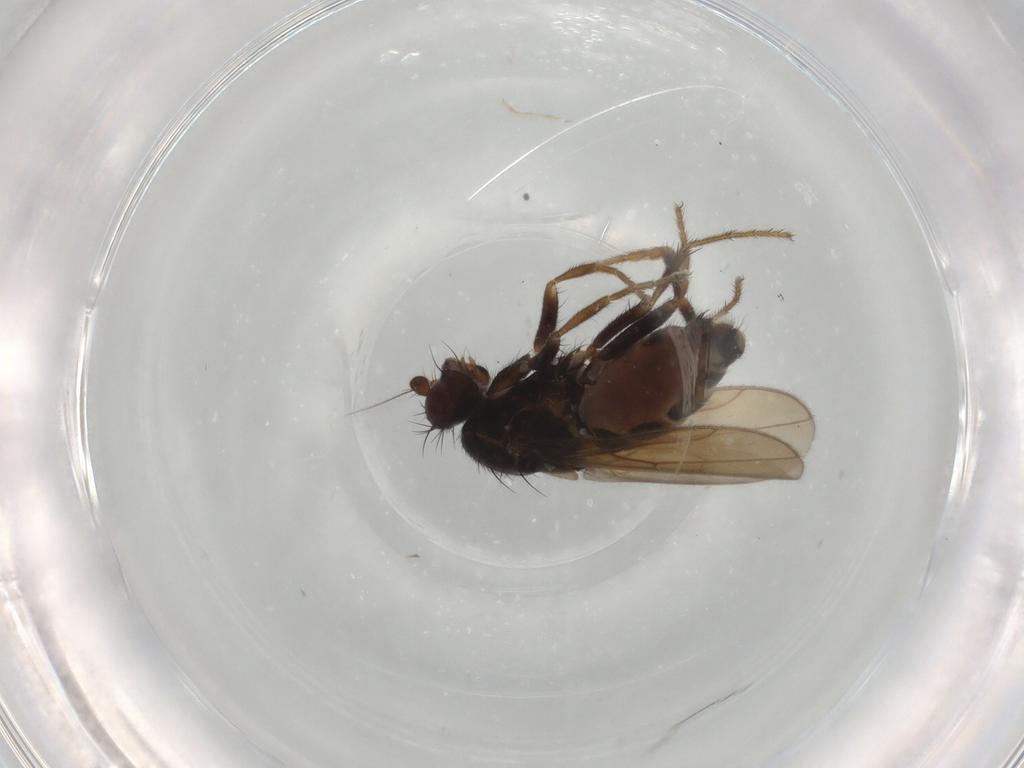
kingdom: Animalia
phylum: Arthropoda
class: Insecta
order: Diptera
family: Sphaeroceridae
